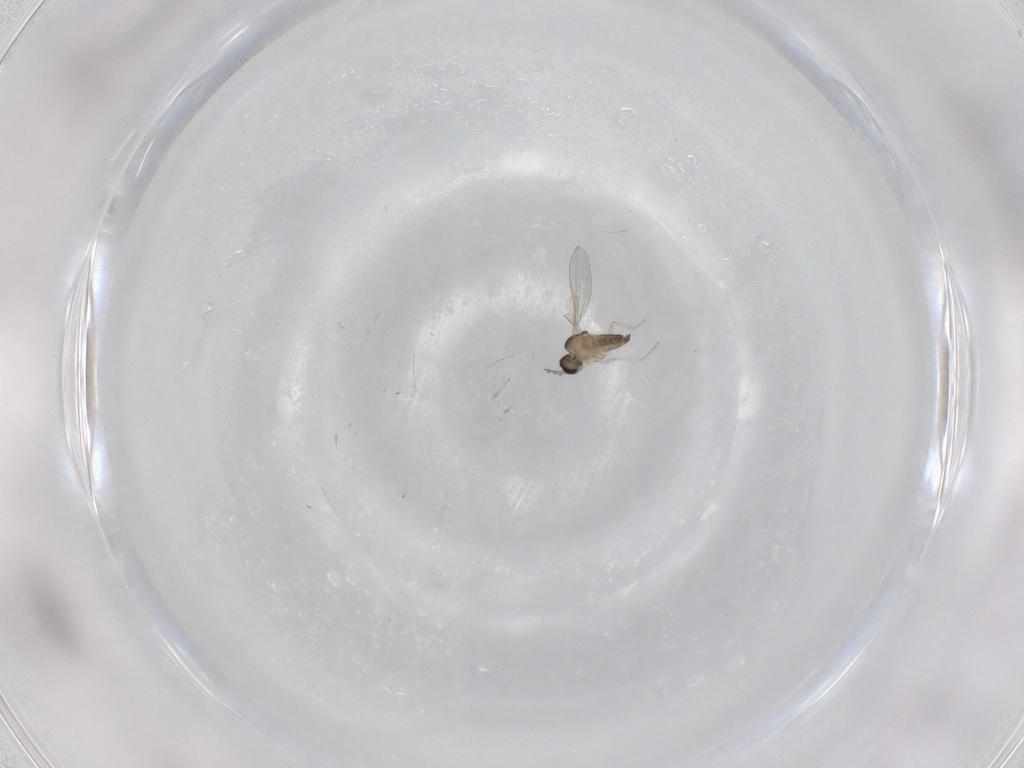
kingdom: Animalia
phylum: Arthropoda
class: Insecta
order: Diptera
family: Cecidomyiidae
